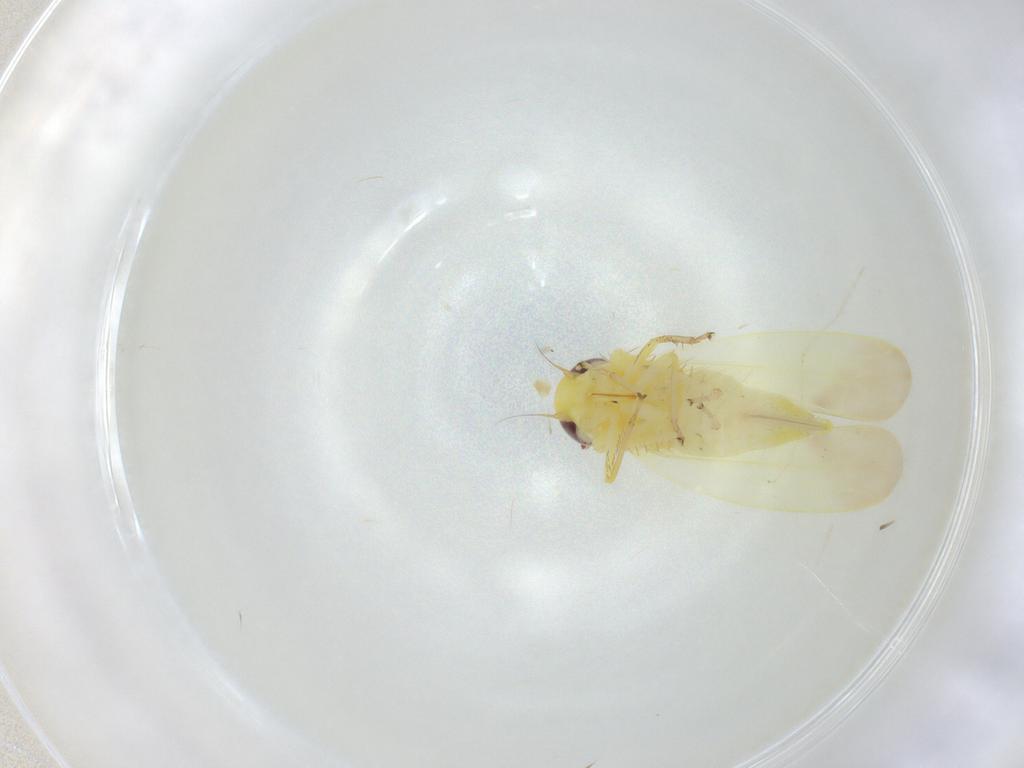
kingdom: Animalia
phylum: Arthropoda
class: Insecta
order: Hemiptera
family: Cicadellidae
